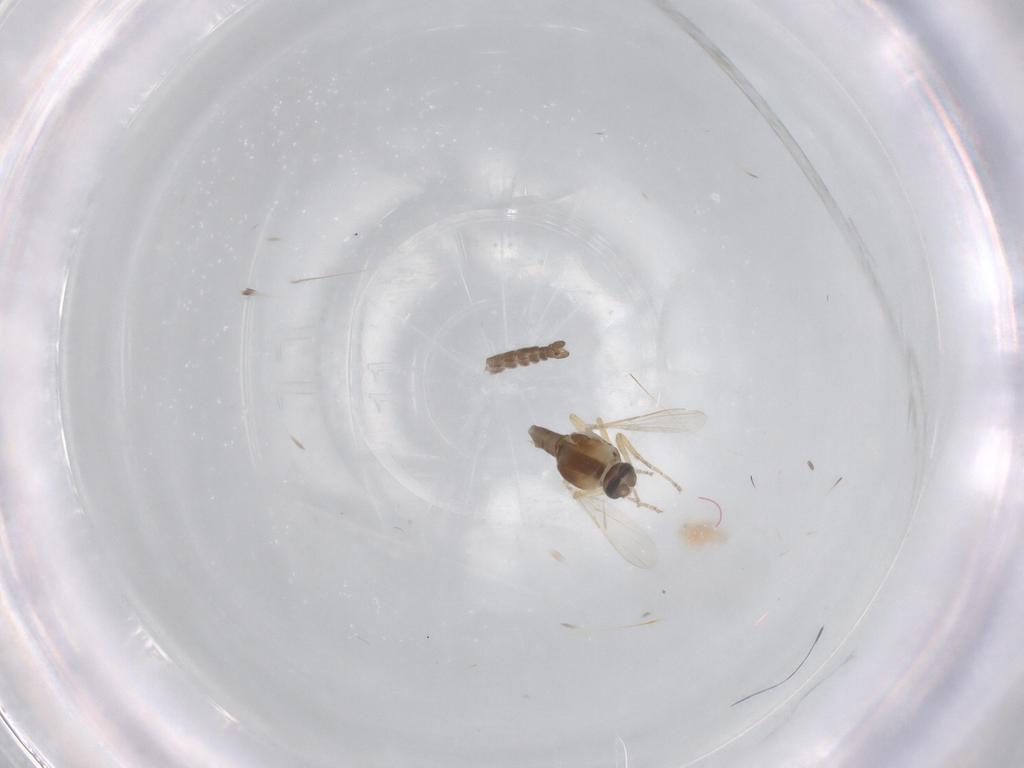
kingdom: Animalia
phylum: Arthropoda
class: Insecta
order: Diptera
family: Ceratopogonidae
